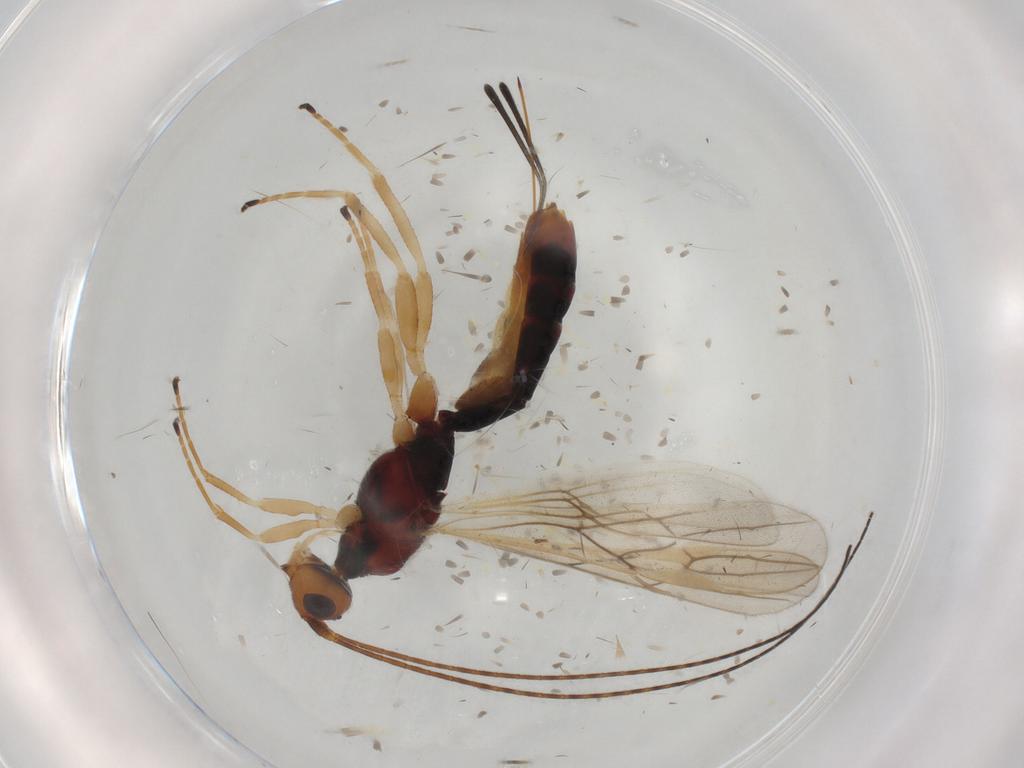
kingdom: Animalia
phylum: Arthropoda
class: Insecta
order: Hymenoptera
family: Braconidae
